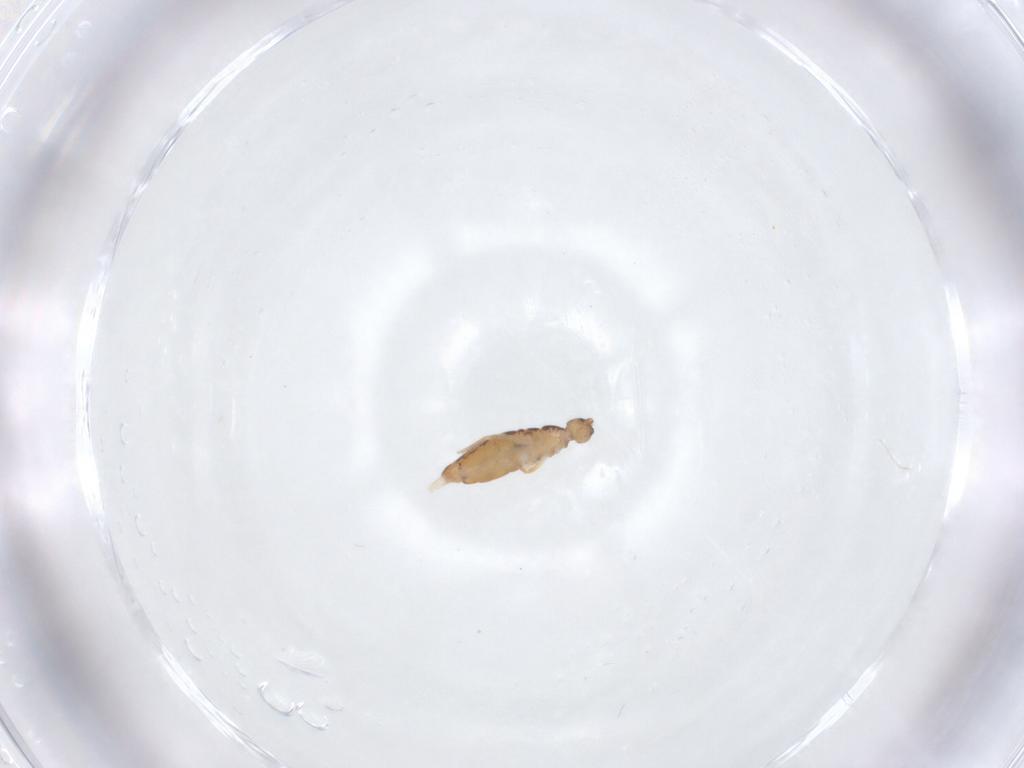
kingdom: Animalia
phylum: Arthropoda
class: Collembola
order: Entomobryomorpha
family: Entomobryidae
